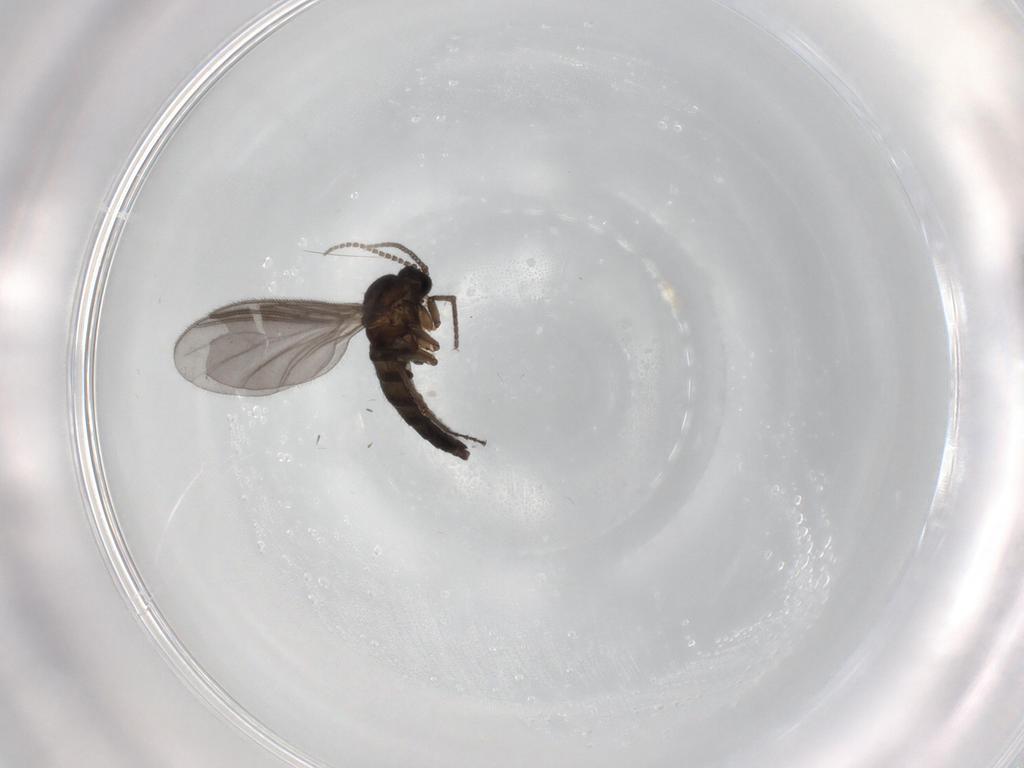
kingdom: Animalia
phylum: Arthropoda
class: Insecta
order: Diptera
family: Sciaridae
